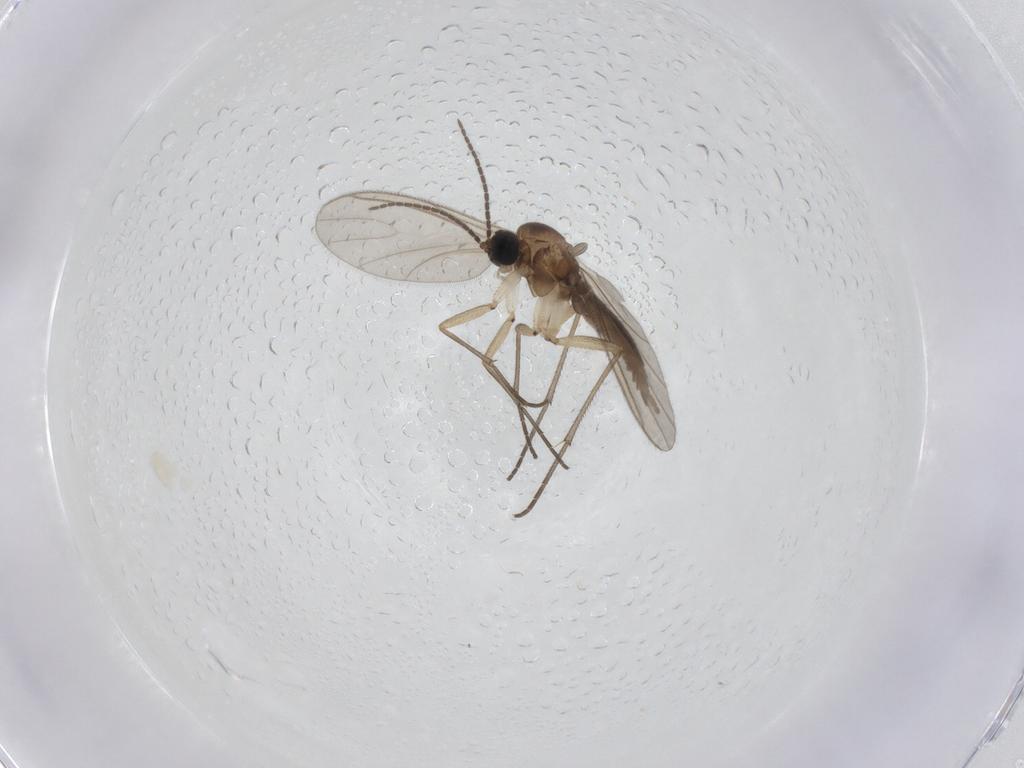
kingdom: Animalia
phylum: Arthropoda
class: Insecta
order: Diptera
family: Sciaridae
